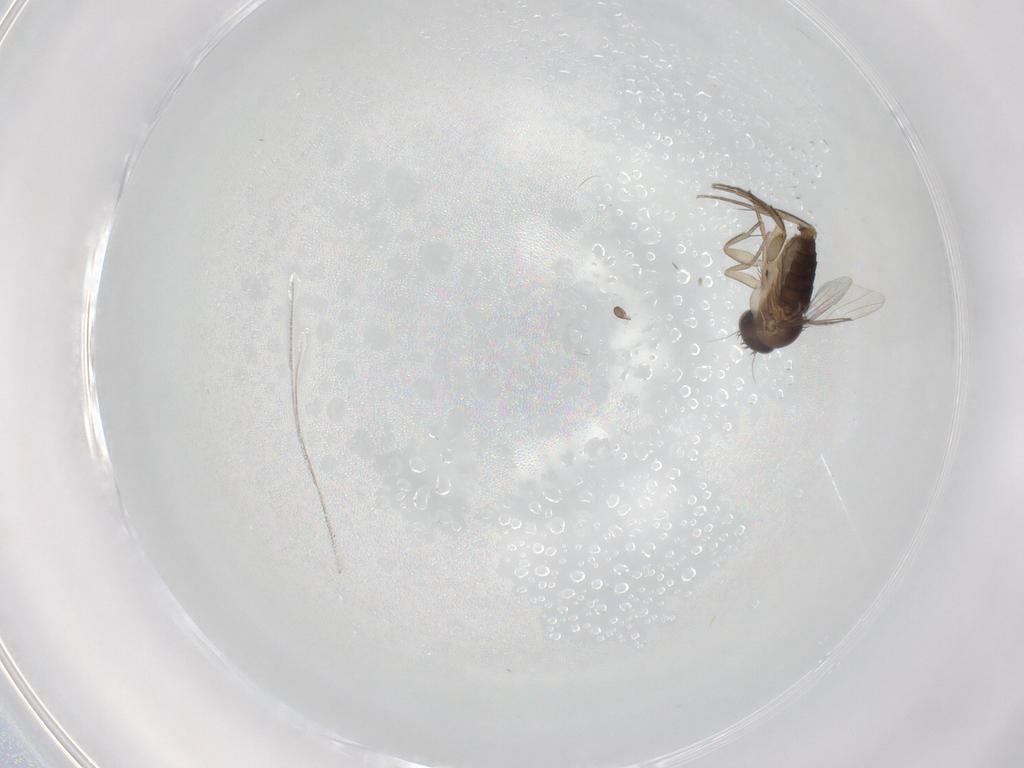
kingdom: Animalia
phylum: Arthropoda
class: Insecta
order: Diptera
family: Phoridae
